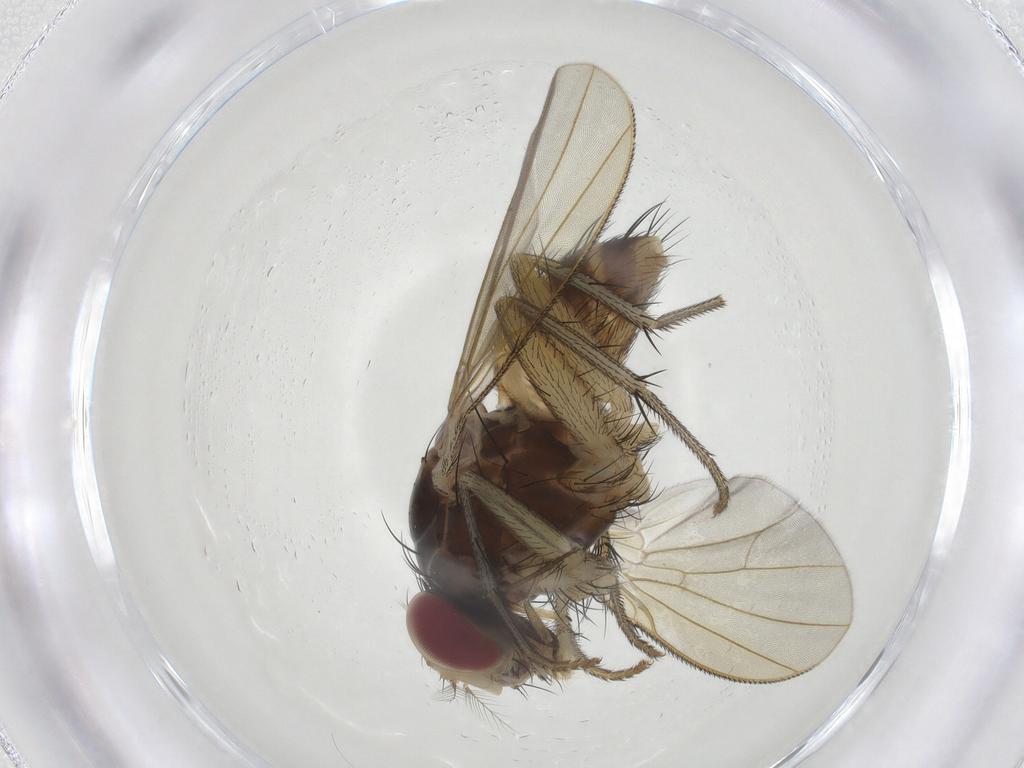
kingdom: Animalia
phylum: Arthropoda
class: Insecta
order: Diptera
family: Muscidae
